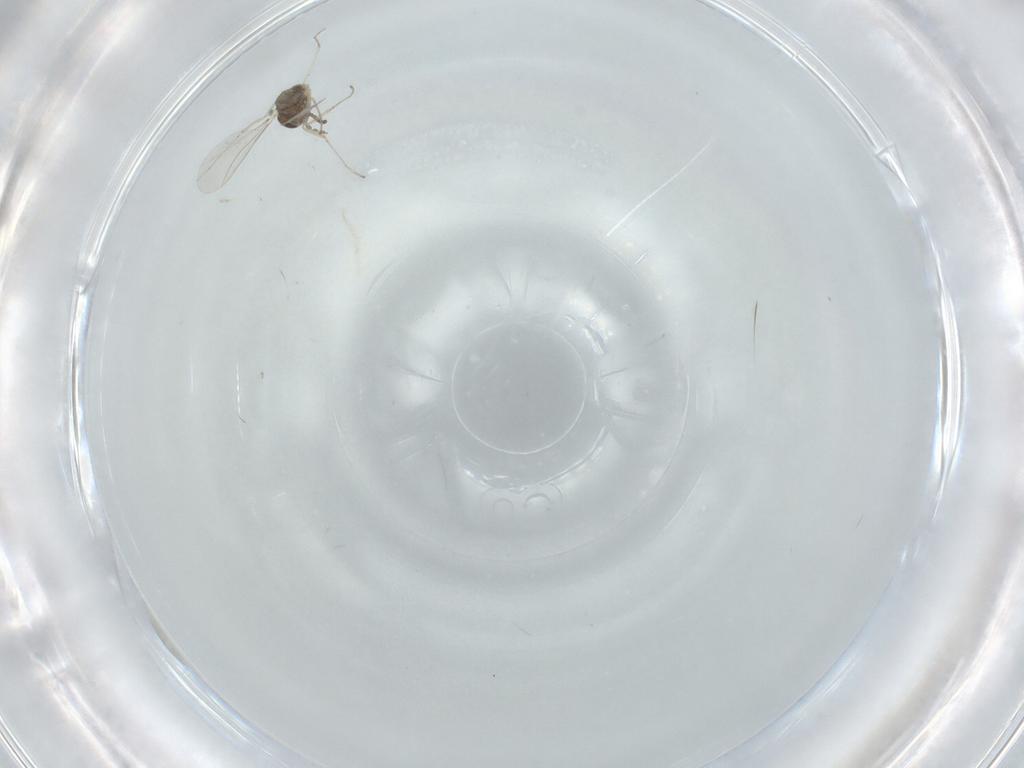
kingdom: Animalia
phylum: Arthropoda
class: Insecta
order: Diptera
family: Cecidomyiidae
